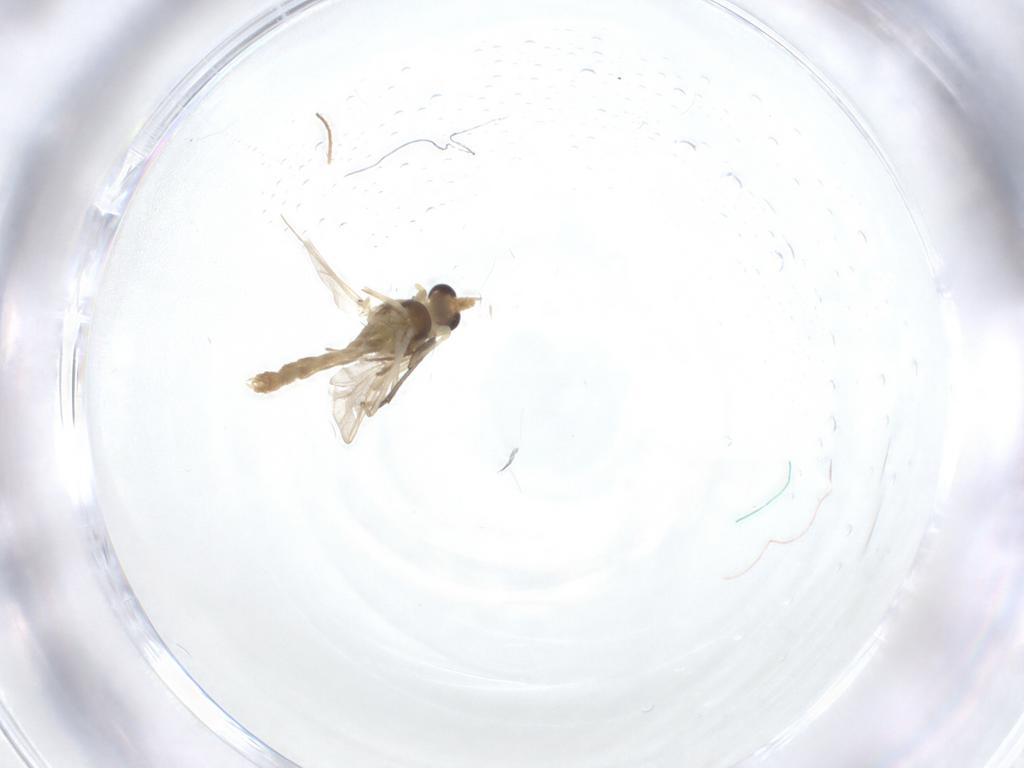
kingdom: Animalia
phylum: Arthropoda
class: Insecta
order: Diptera
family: Chironomidae
